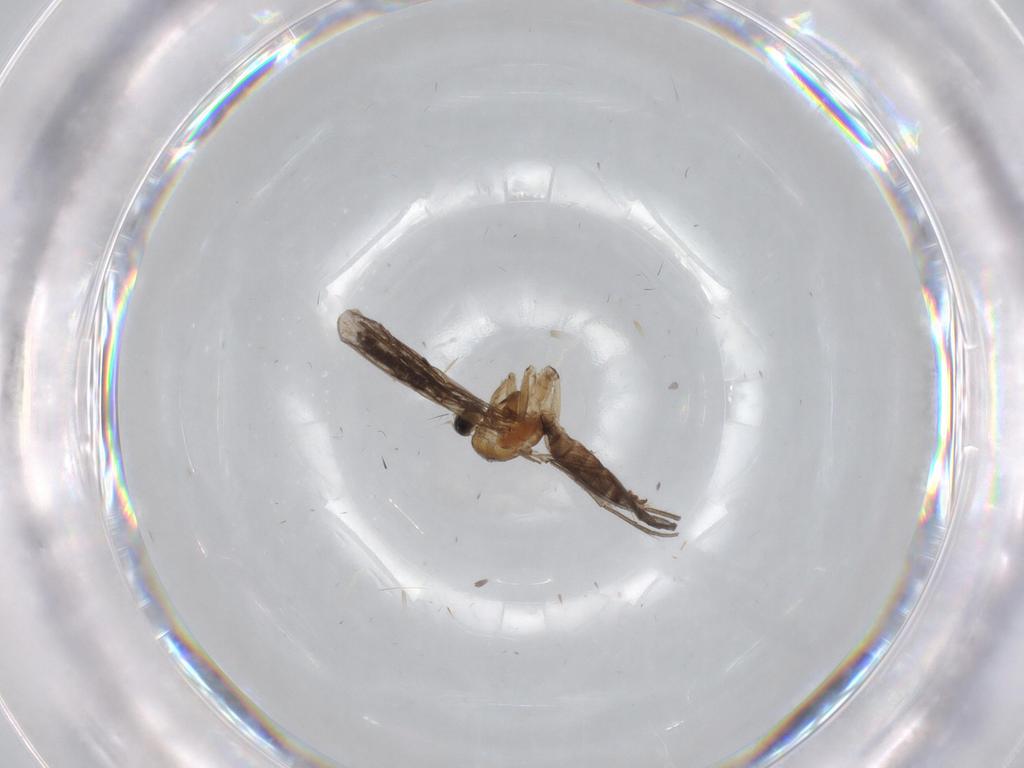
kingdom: Animalia
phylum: Arthropoda
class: Insecta
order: Diptera
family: Sciaridae
